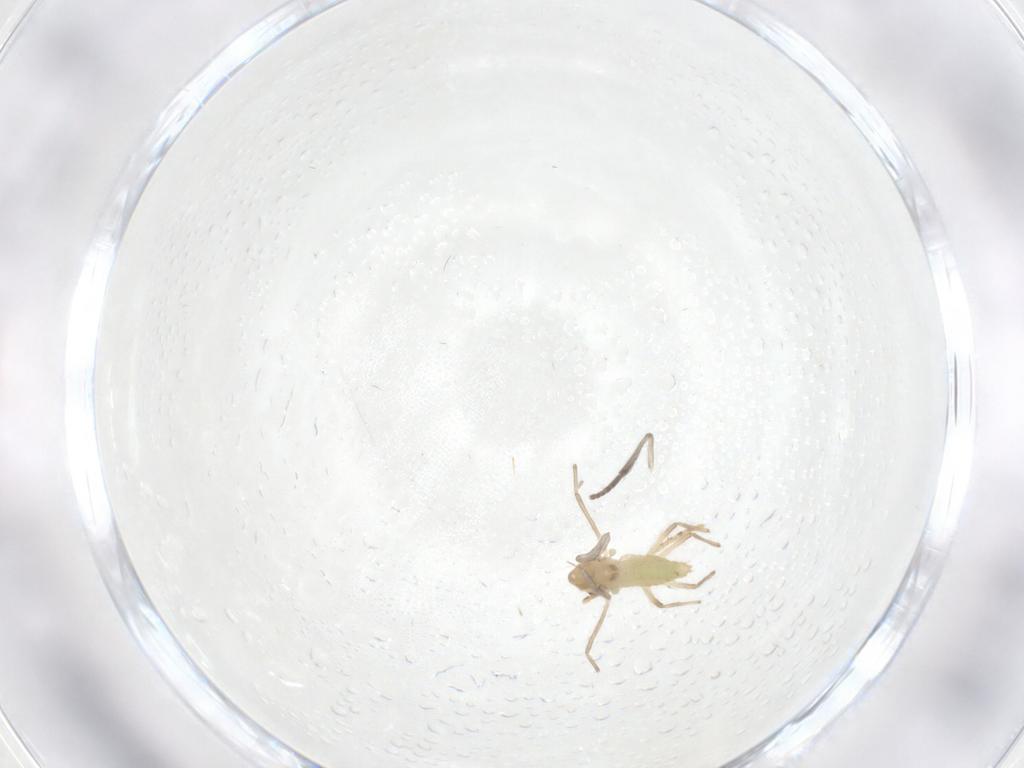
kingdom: Animalia
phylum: Arthropoda
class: Insecta
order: Diptera
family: Chironomidae
